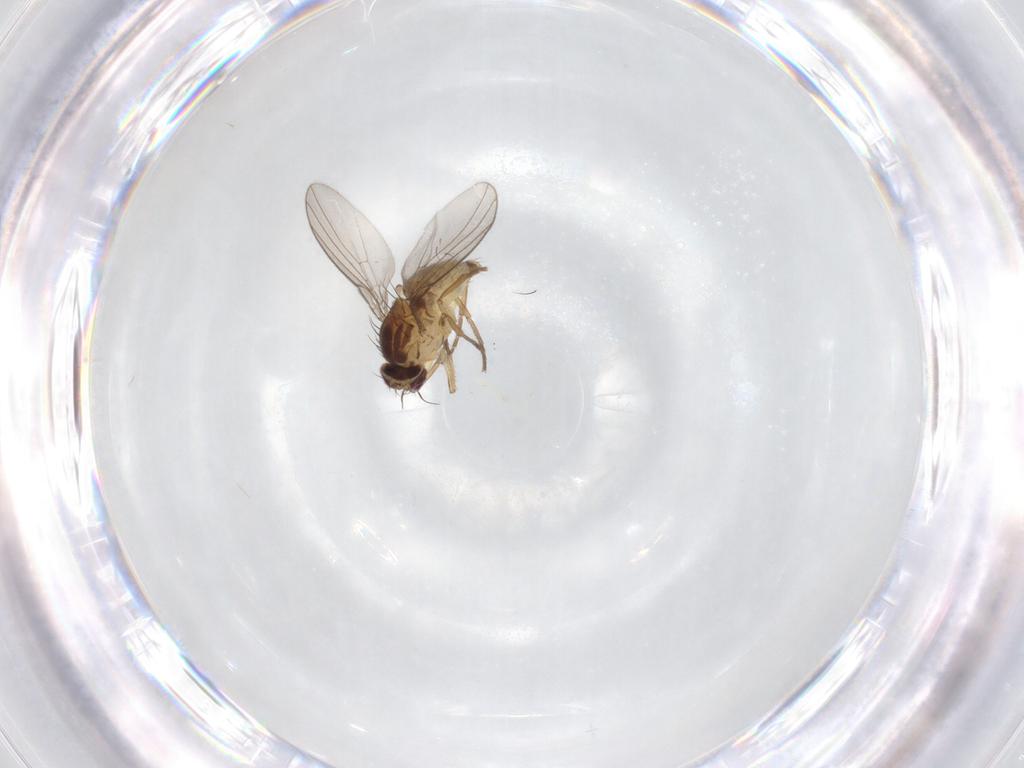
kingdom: Animalia
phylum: Arthropoda
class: Insecta
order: Diptera
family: Agromyzidae
